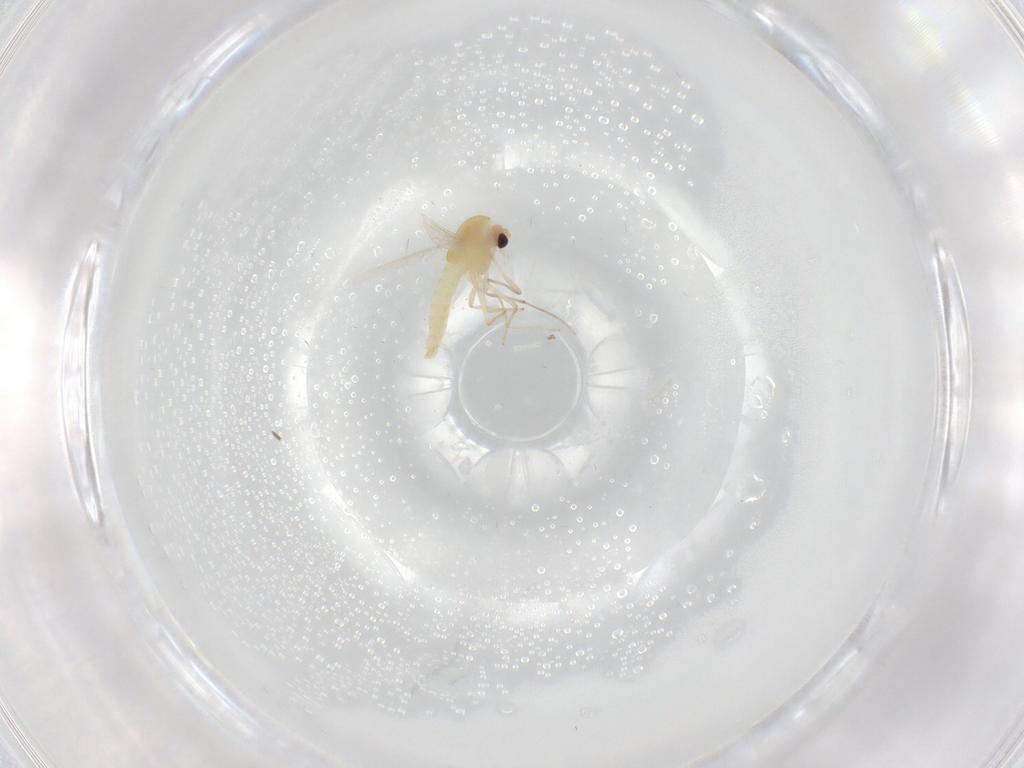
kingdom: Animalia
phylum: Arthropoda
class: Insecta
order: Diptera
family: Chironomidae
